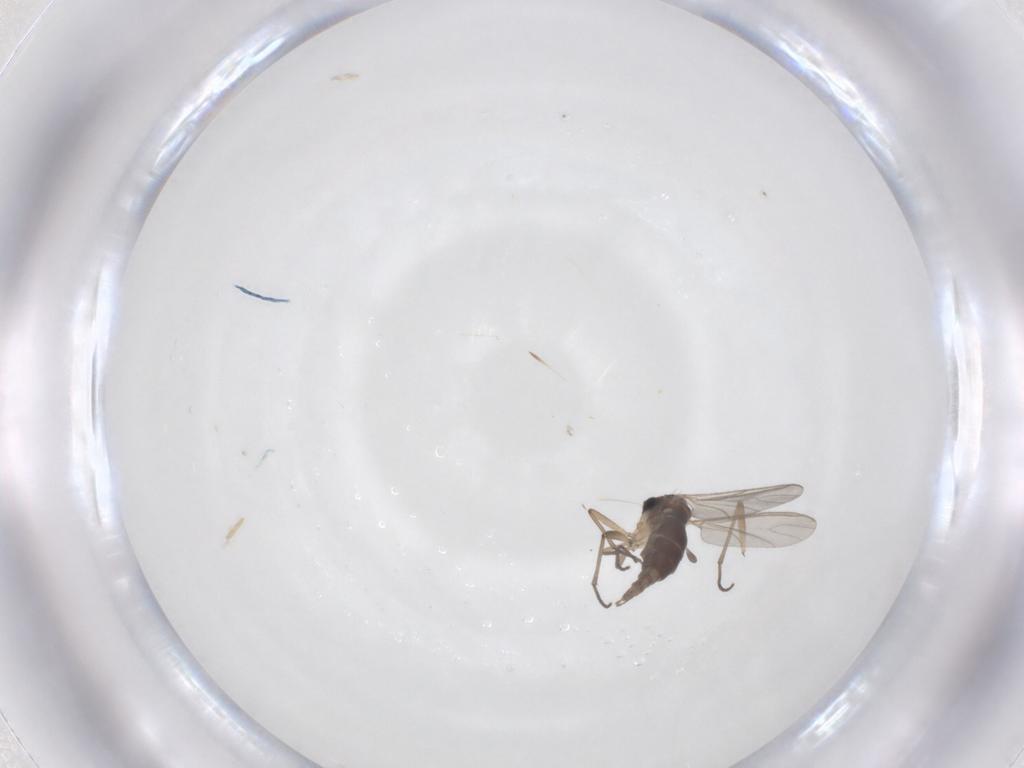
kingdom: Animalia
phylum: Arthropoda
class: Insecta
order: Diptera
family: Sciaridae
